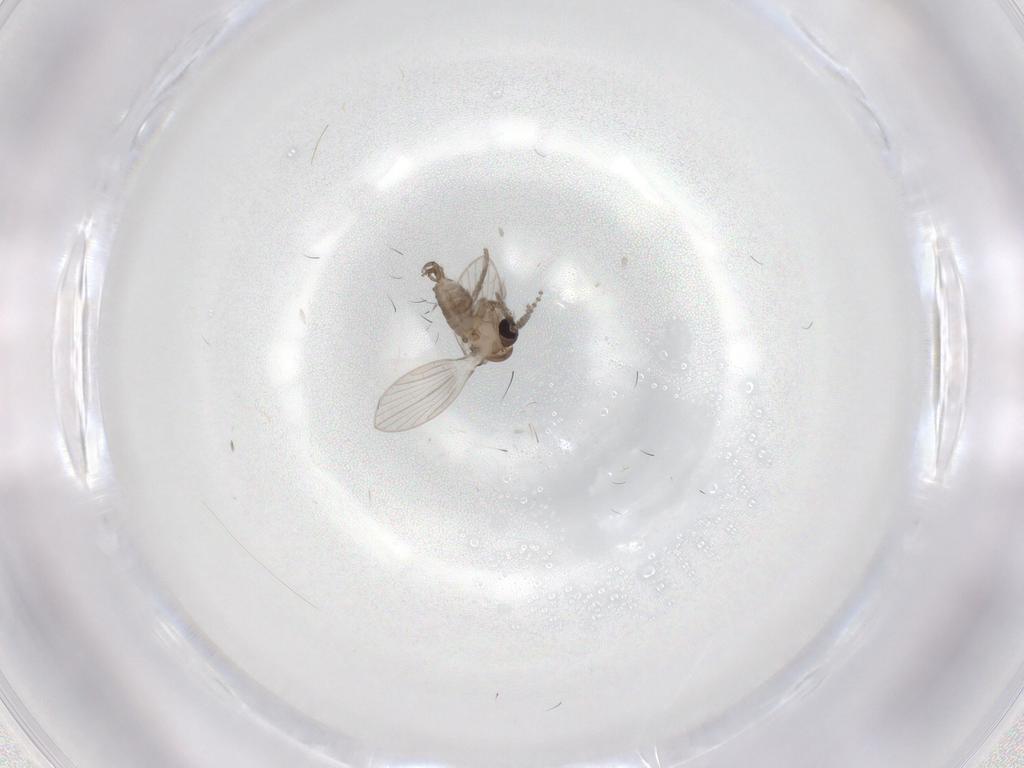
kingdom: Animalia
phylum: Arthropoda
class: Insecta
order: Diptera
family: Psychodidae
